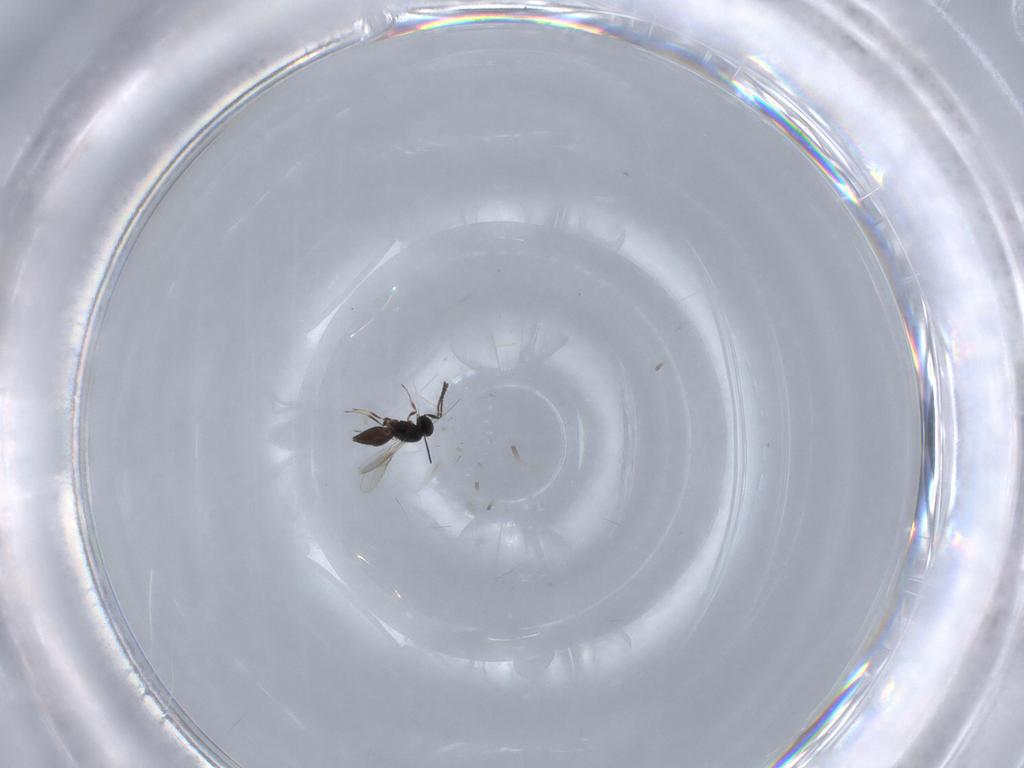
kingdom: Animalia
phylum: Arthropoda
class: Insecta
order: Hymenoptera
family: Scelionidae
